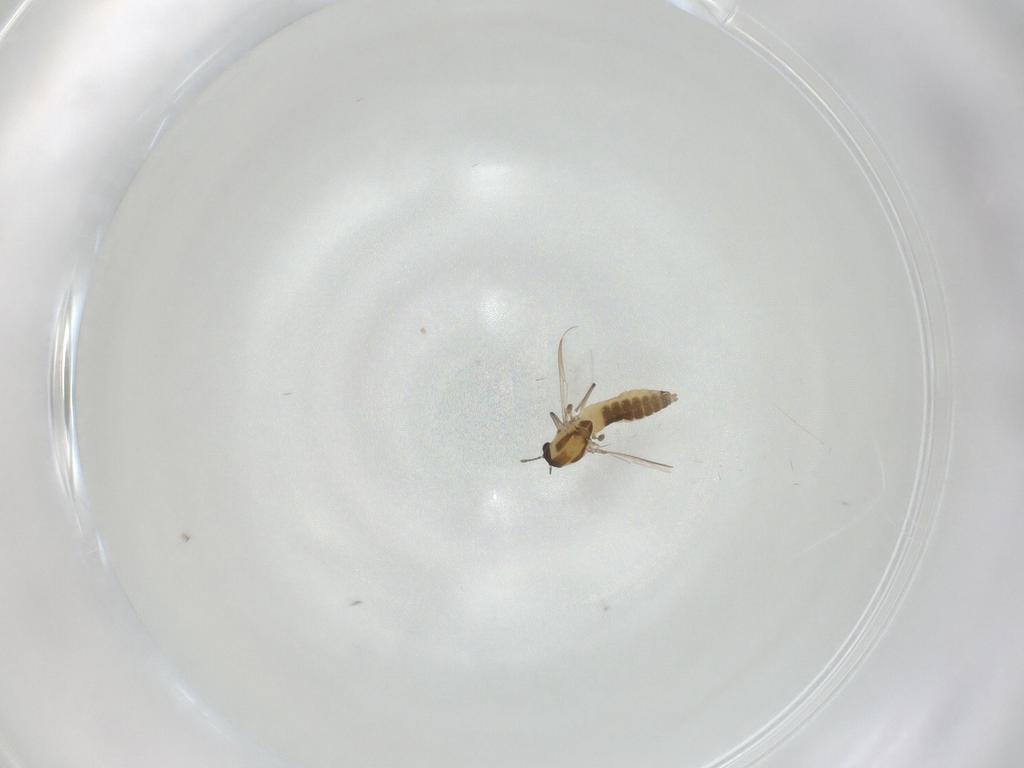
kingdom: Animalia
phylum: Arthropoda
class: Insecta
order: Diptera
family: Chironomidae
